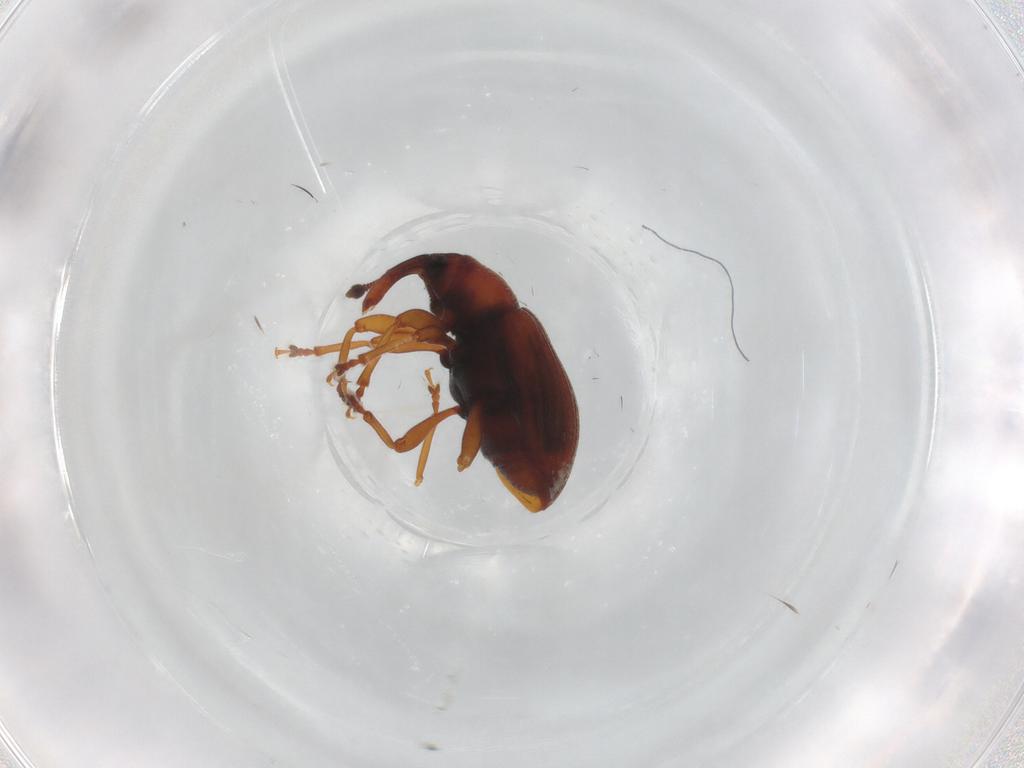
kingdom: Animalia
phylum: Arthropoda
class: Insecta
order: Coleoptera
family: Curculionidae
